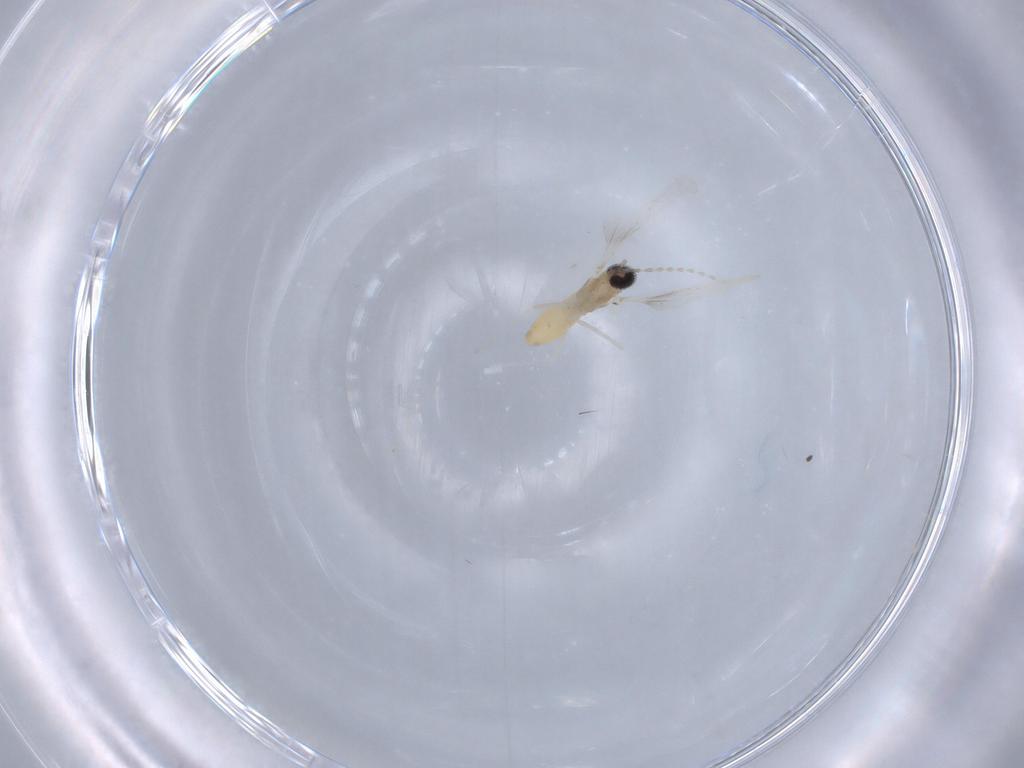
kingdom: Animalia
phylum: Arthropoda
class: Insecta
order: Diptera
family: Cecidomyiidae
